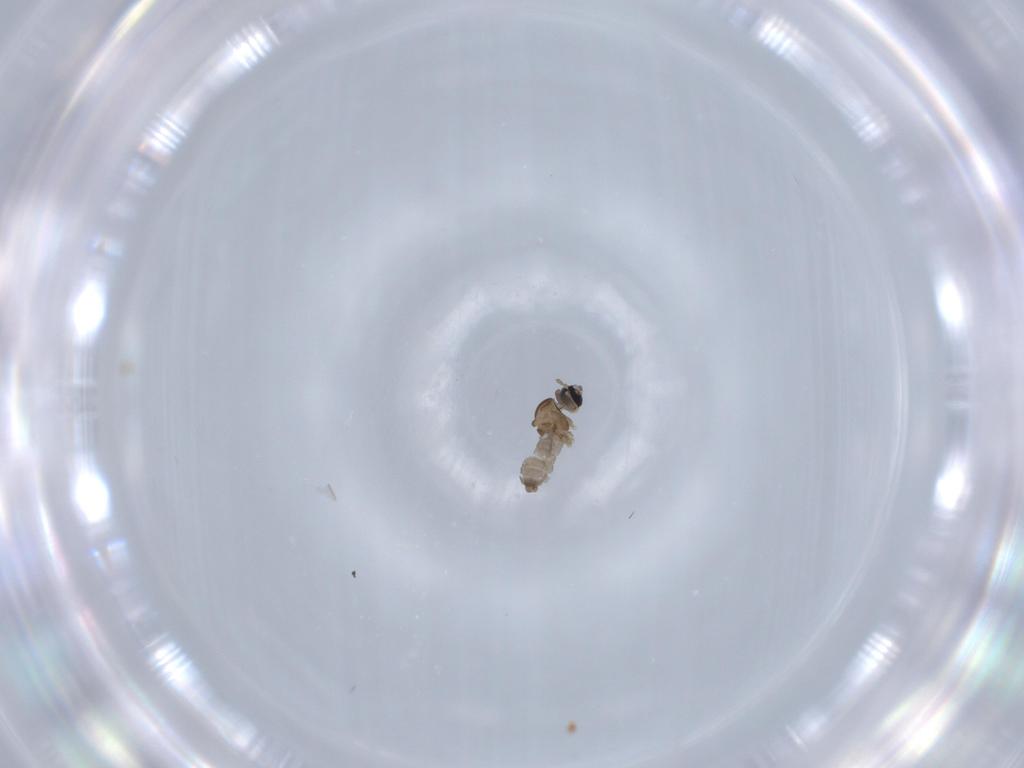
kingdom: Animalia
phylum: Arthropoda
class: Insecta
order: Diptera
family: Cecidomyiidae
